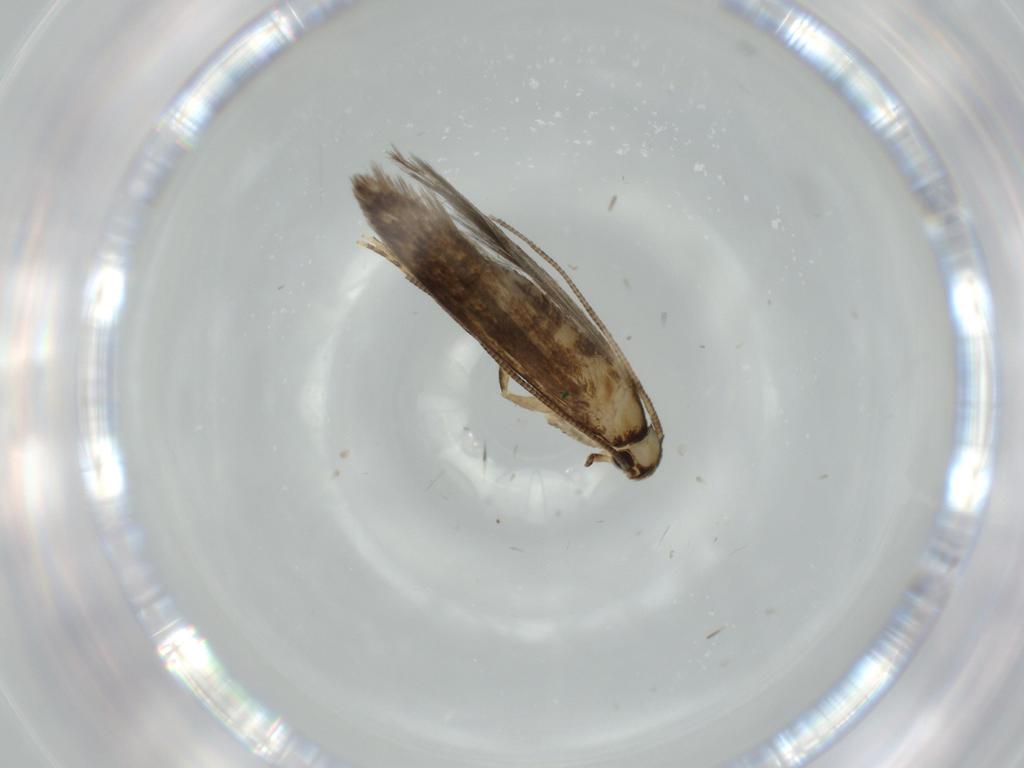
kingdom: Animalia
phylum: Arthropoda
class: Insecta
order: Lepidoptera
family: Tineidae
